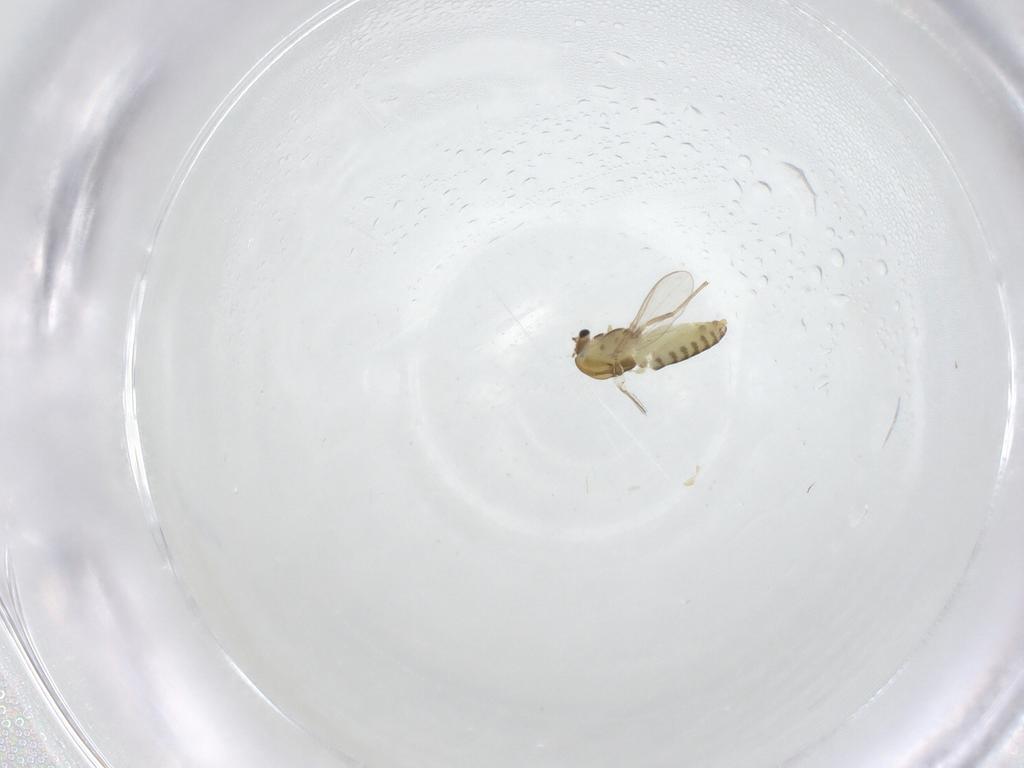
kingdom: Animalia
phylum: Arthropoda
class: Insecta
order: Diptera
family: Chironomidae
